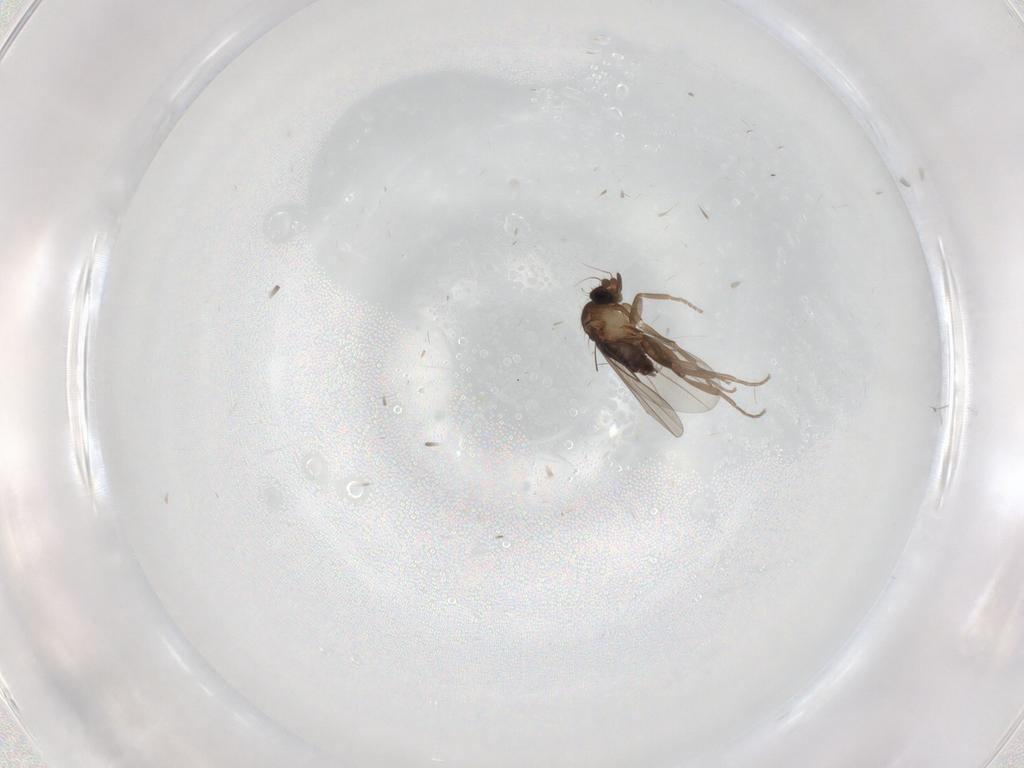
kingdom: Animalia
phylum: Arthropoda
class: Insecta
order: Diptera
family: Chironomidae
